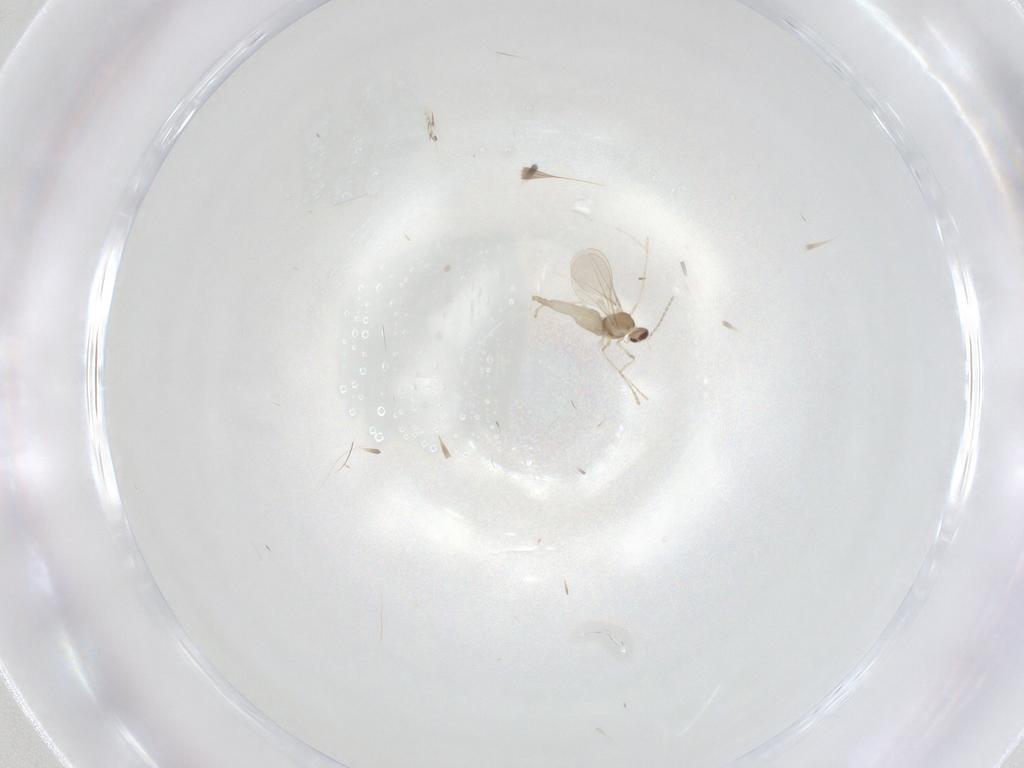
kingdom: Animalia
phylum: Arthropoda
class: Insecta
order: Diptera
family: Cecidomyiidae
